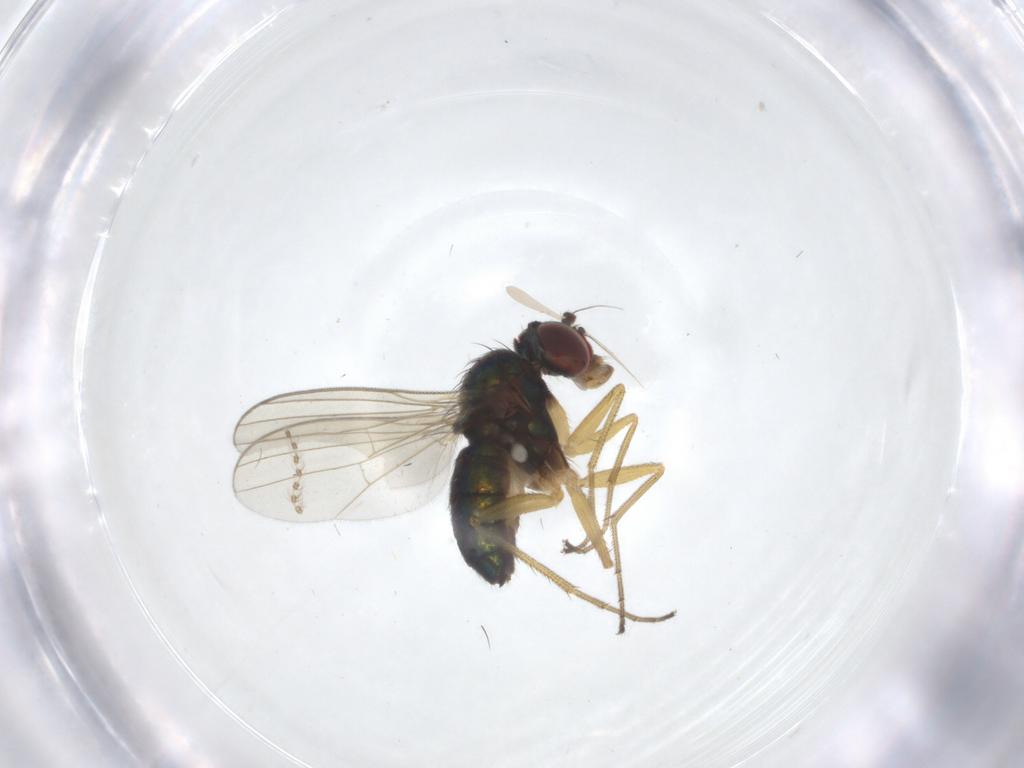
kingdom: Animalia
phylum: Arthropoda
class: Insecta
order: Diptera
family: Dolichopodidae
